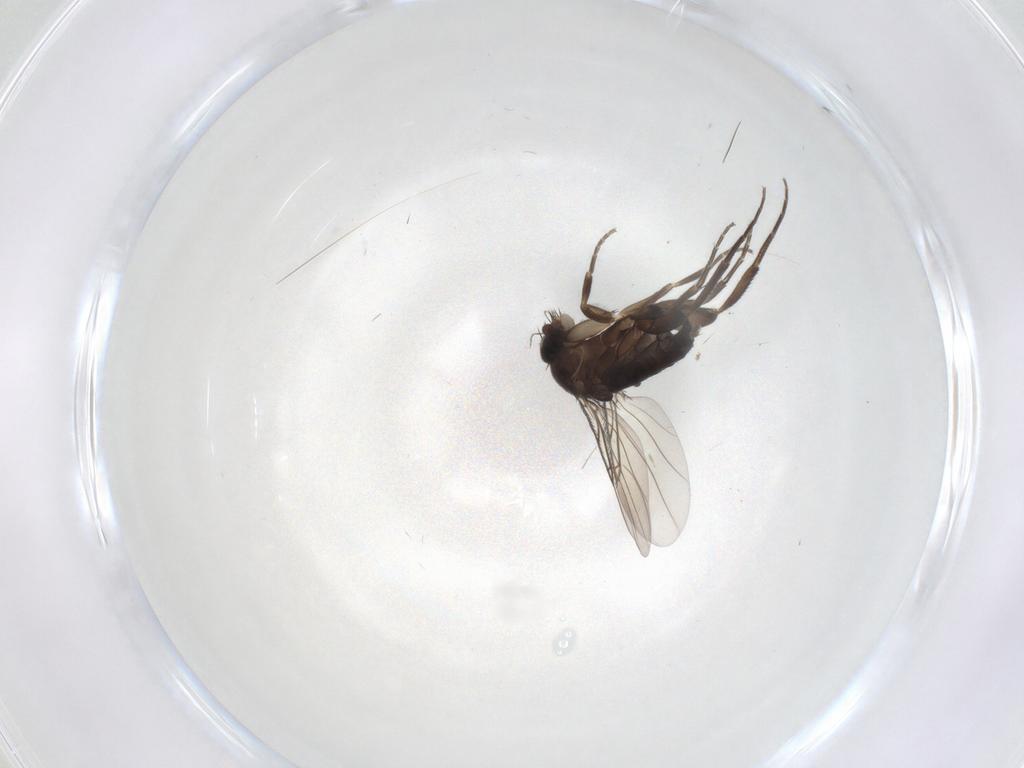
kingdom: Animalia
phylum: Arthropoda
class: Insecta
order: Diptera
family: Phoridae
